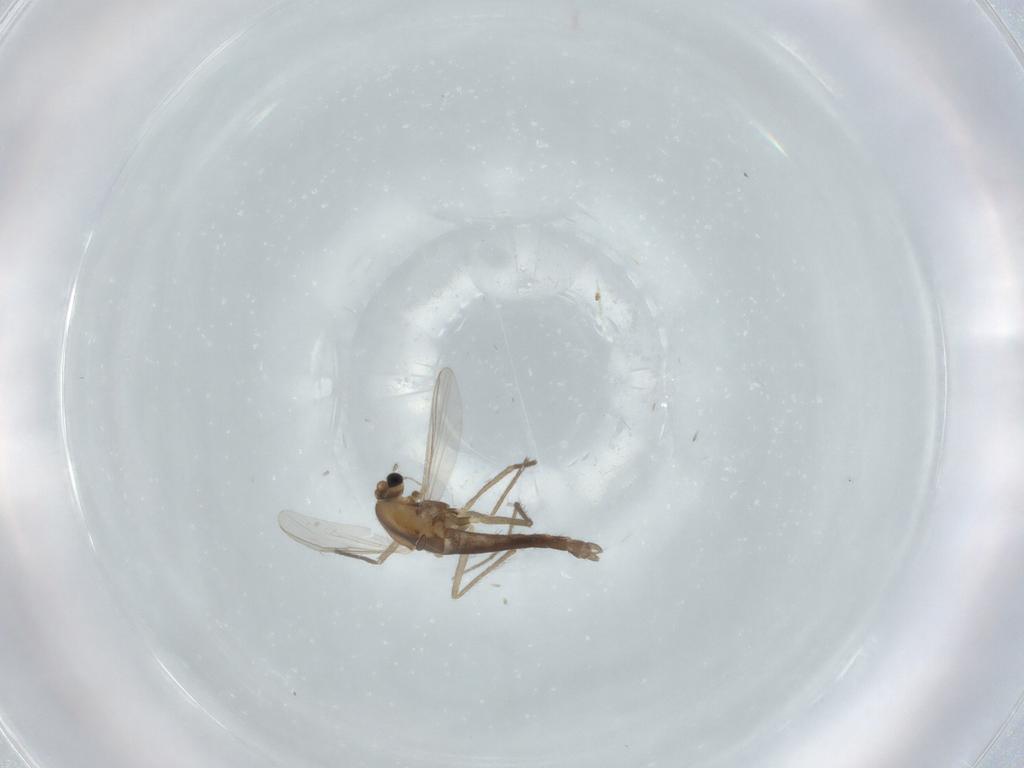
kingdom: Animalia
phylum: Arthropoda
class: Insecta
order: Diptera
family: Chironomidae
